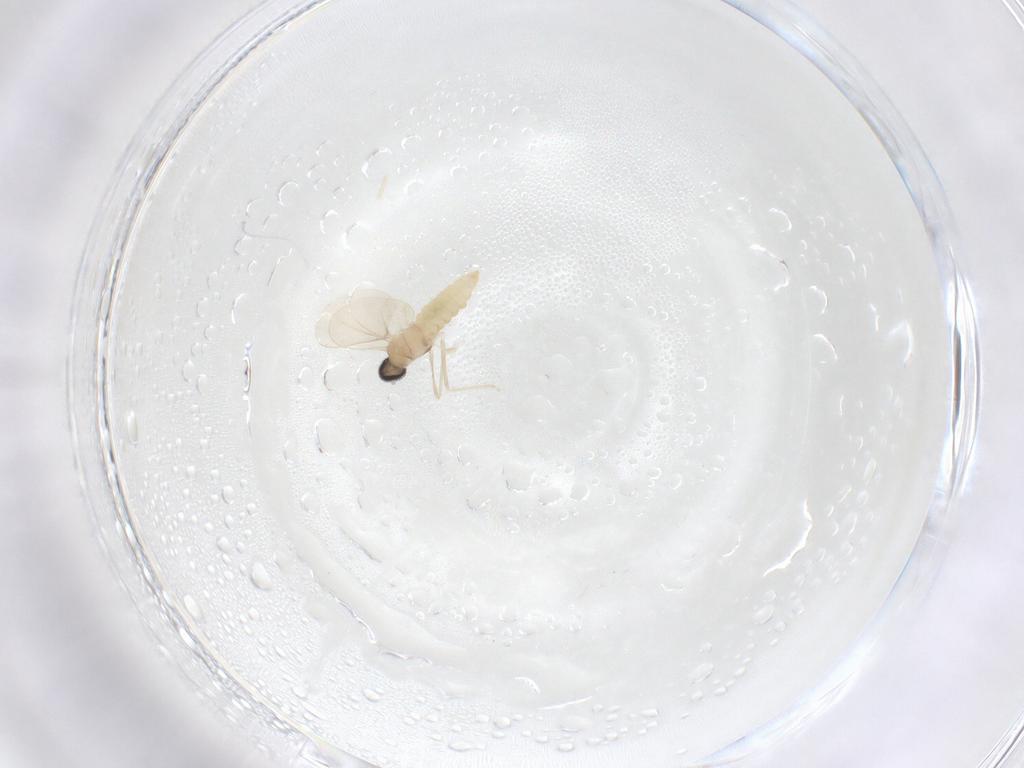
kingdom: Animalia
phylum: Arthropoda
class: Insecta
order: Diptera
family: Cecidomyiidae
